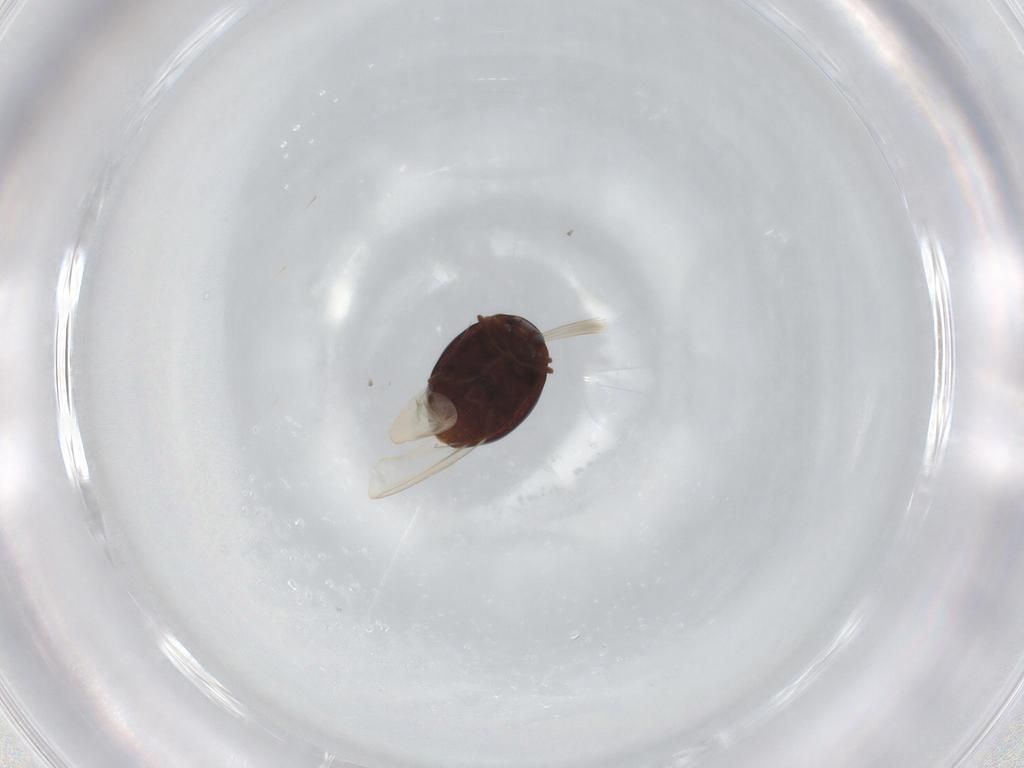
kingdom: Animalia
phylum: Arthropoda
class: Insecta
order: Coleoptera
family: Coccinellidae
